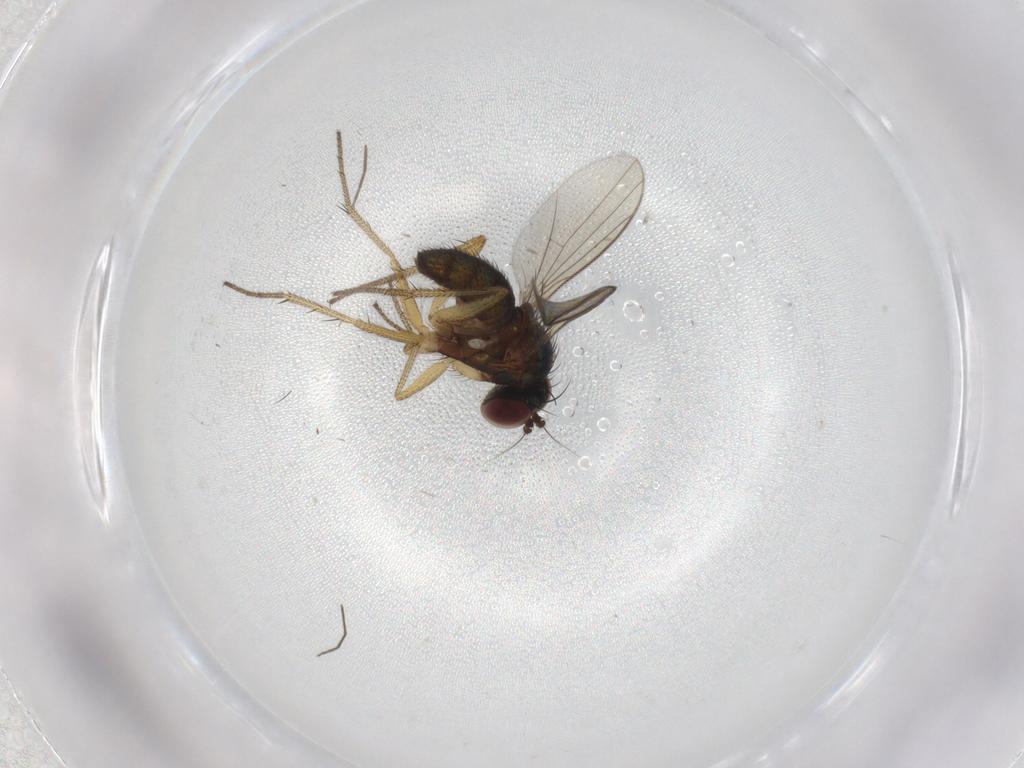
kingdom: Animalia
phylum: Arthropoda
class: Insecta
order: Diptera
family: Dolichopodidae
